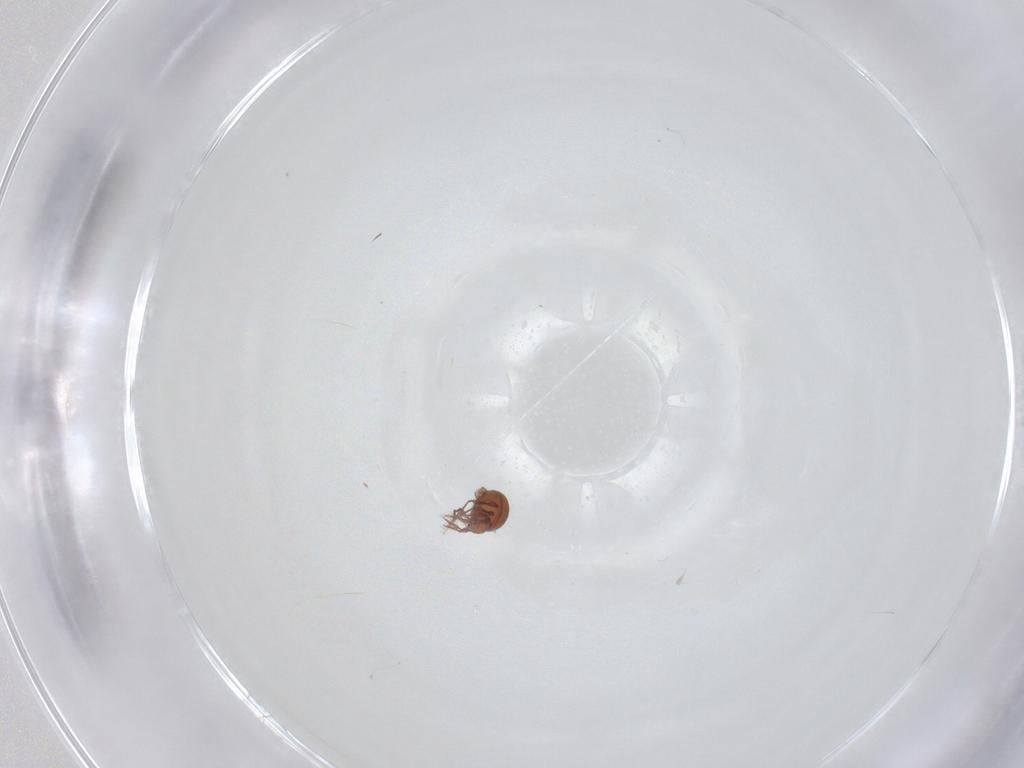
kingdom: Animalia
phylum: Arthropoda
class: Arachnida
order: Sarcoptiformes
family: Oppiidae
